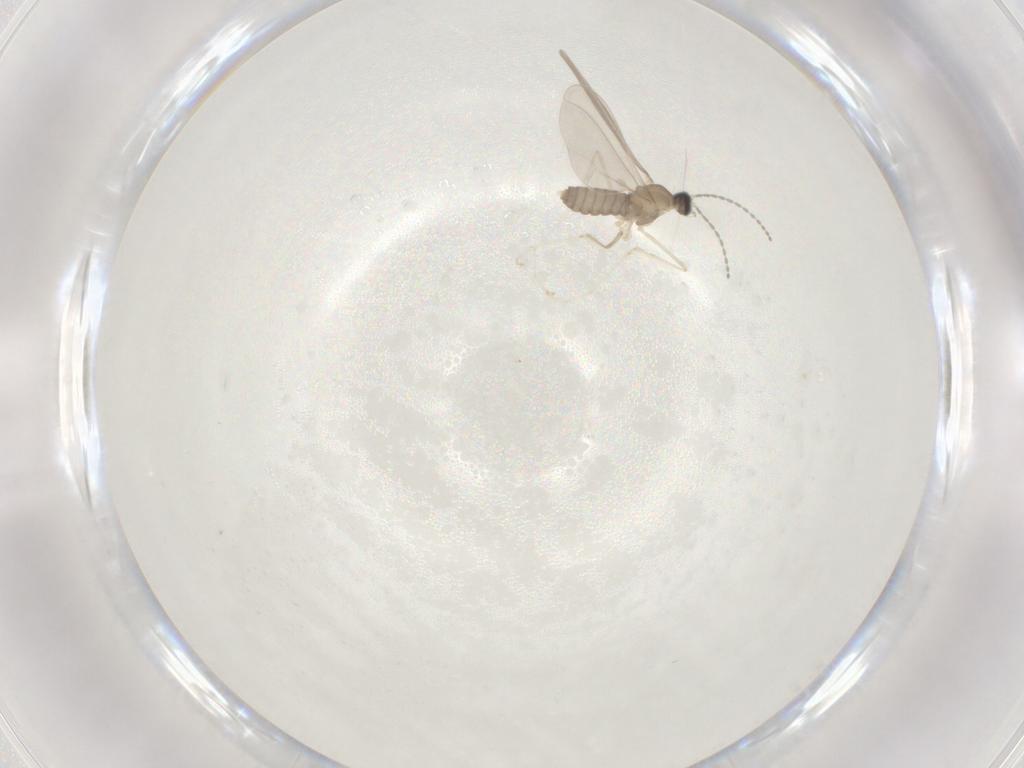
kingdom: Animalia
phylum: Arthropoda
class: Insecta
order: Diptera
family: Cecidomyiidae
